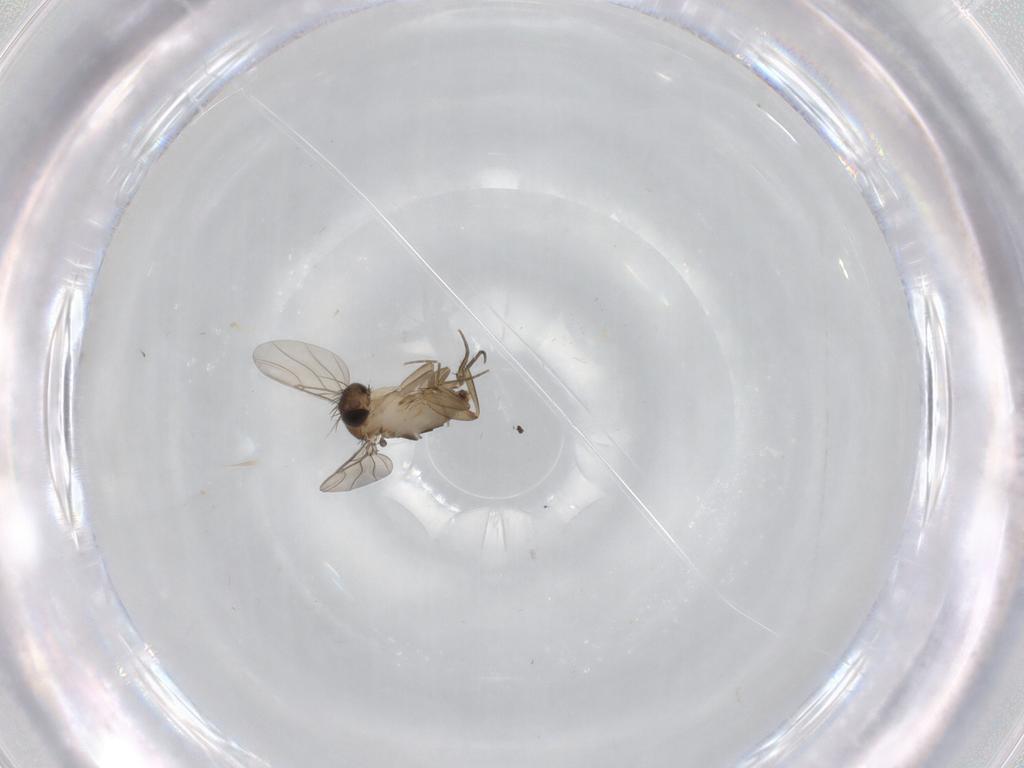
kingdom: Animalia
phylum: Arthropoda
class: Insecta
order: Diptera
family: Phoridae
